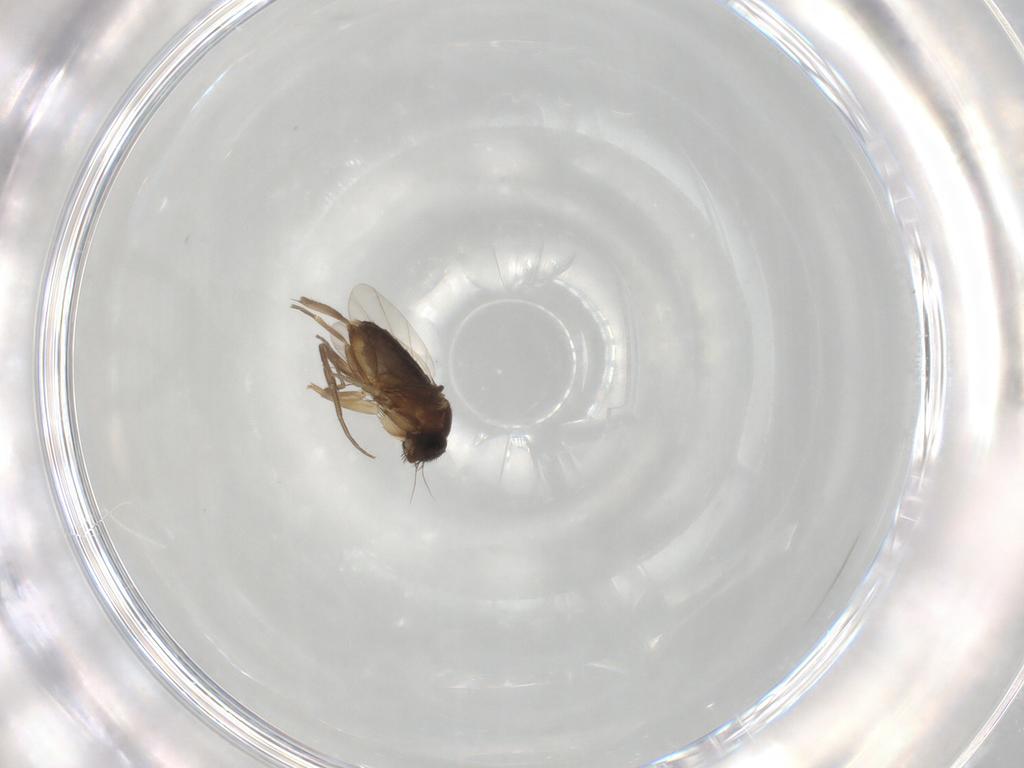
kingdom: Animalia
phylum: Arthropoda
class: Insecta
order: Diptera
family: Phoridae
